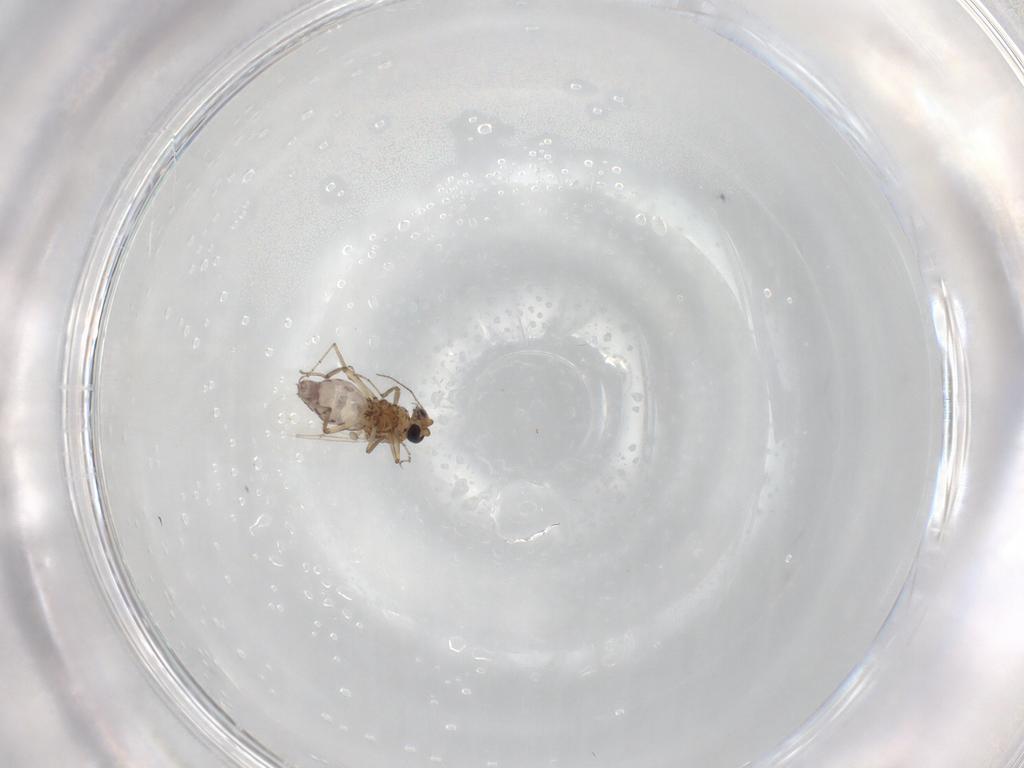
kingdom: Animalia
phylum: Arthropoda
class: Insecta
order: Diptera
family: Ceratopogonidae
